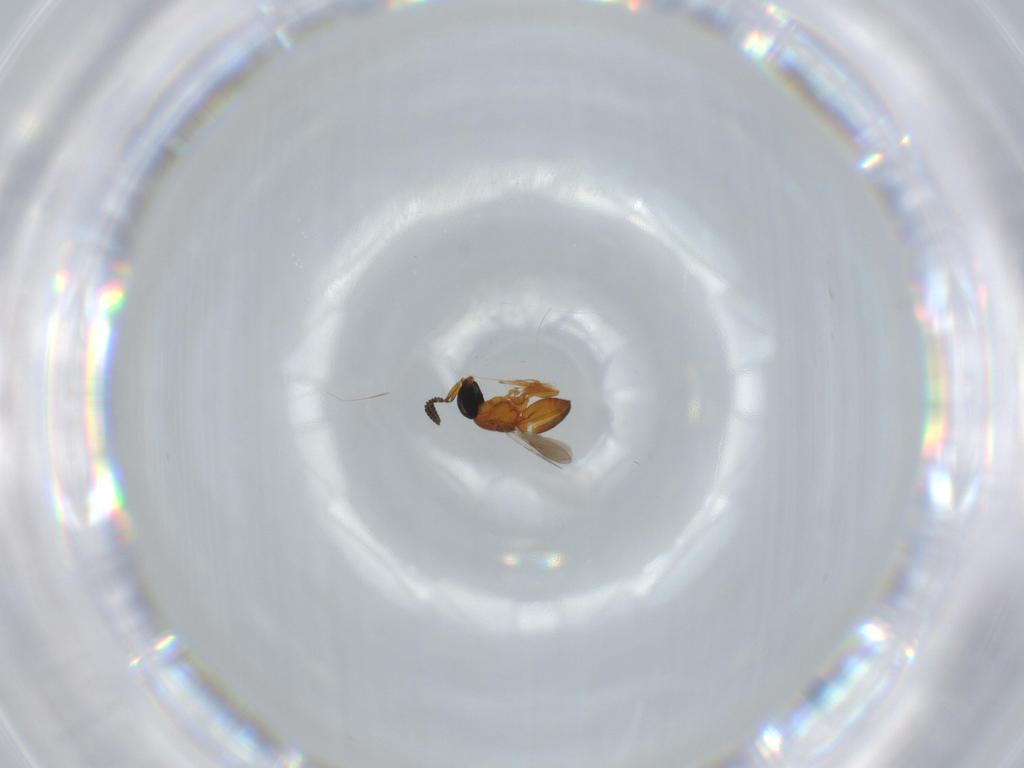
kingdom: Animalia
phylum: Arthropoda
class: Insecta
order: Hymenoptera
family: Scelionidae
